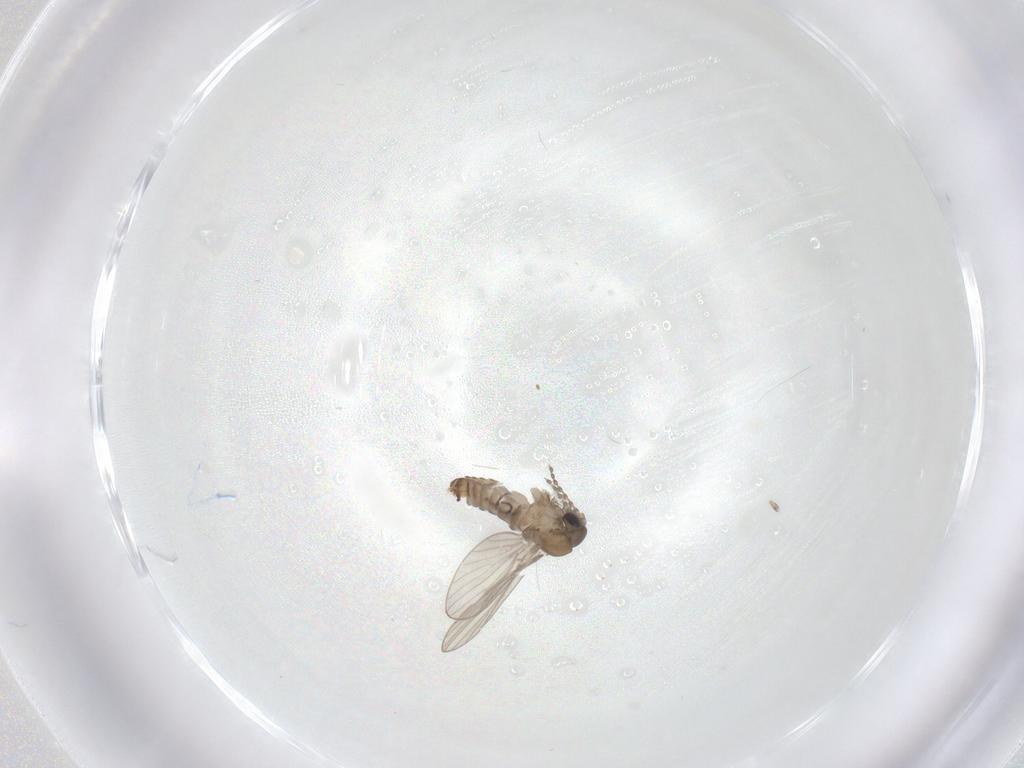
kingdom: Animalia
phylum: Arthropoda
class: Insecta
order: Diptera
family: Psychodidae
